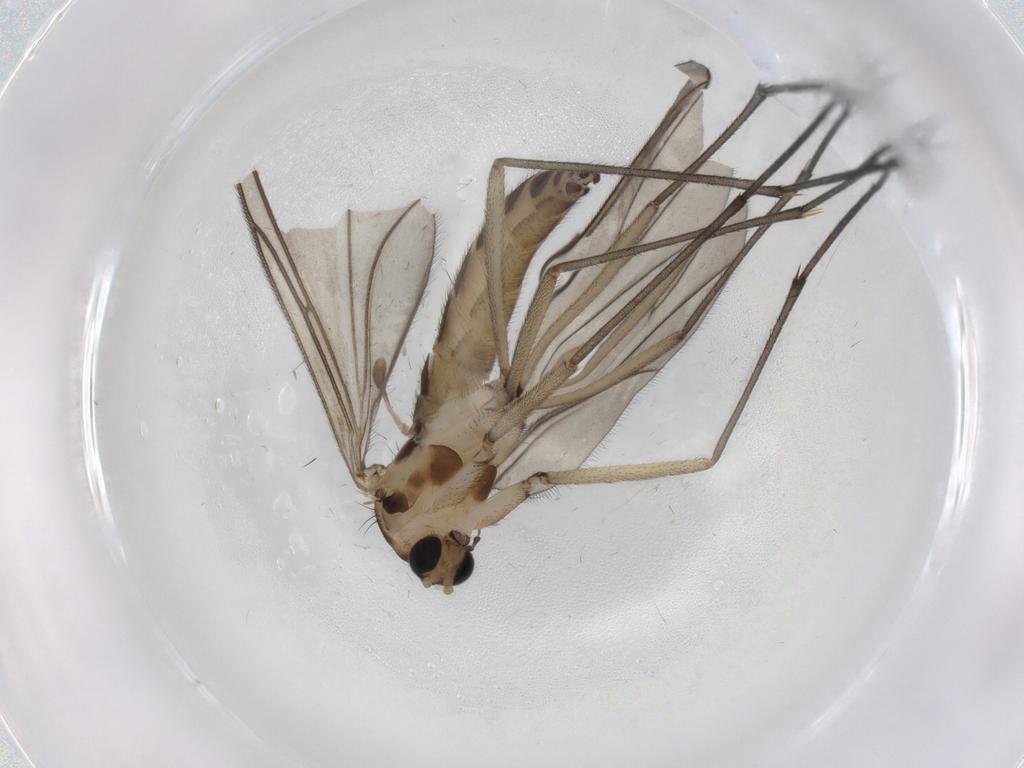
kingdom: Animalia
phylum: Arthropoda
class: Insecta
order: Diptera
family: Sciaridae
